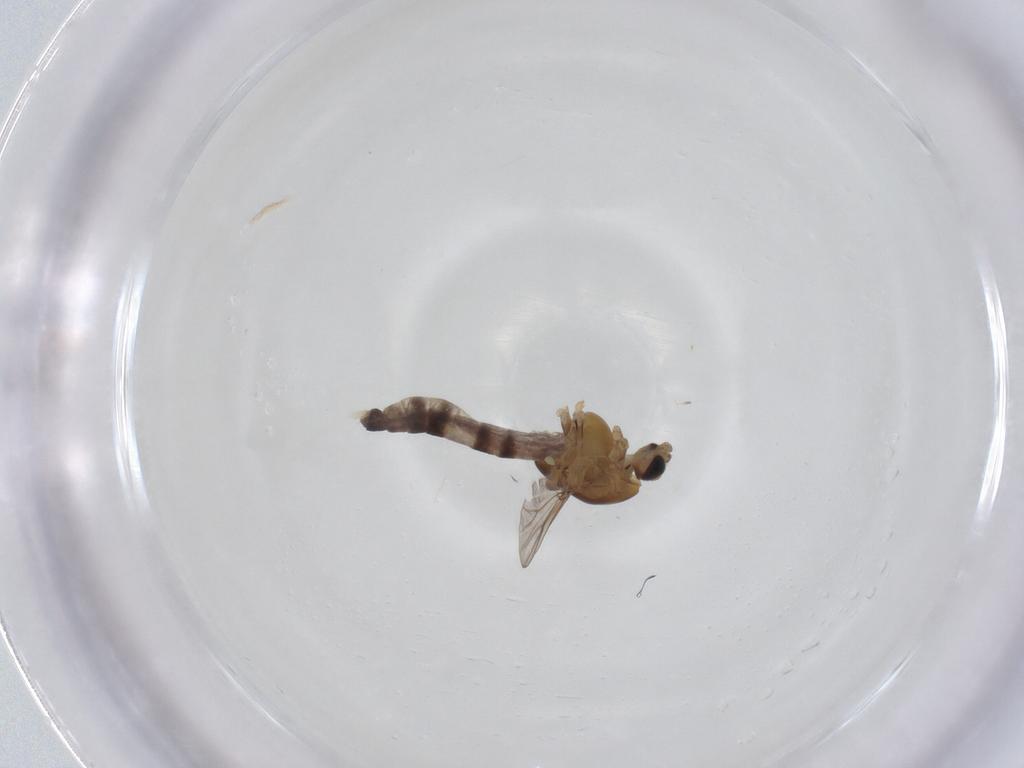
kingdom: Animalia
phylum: Arthropoda
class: Insecta
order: Diptera
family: Chironomidae
